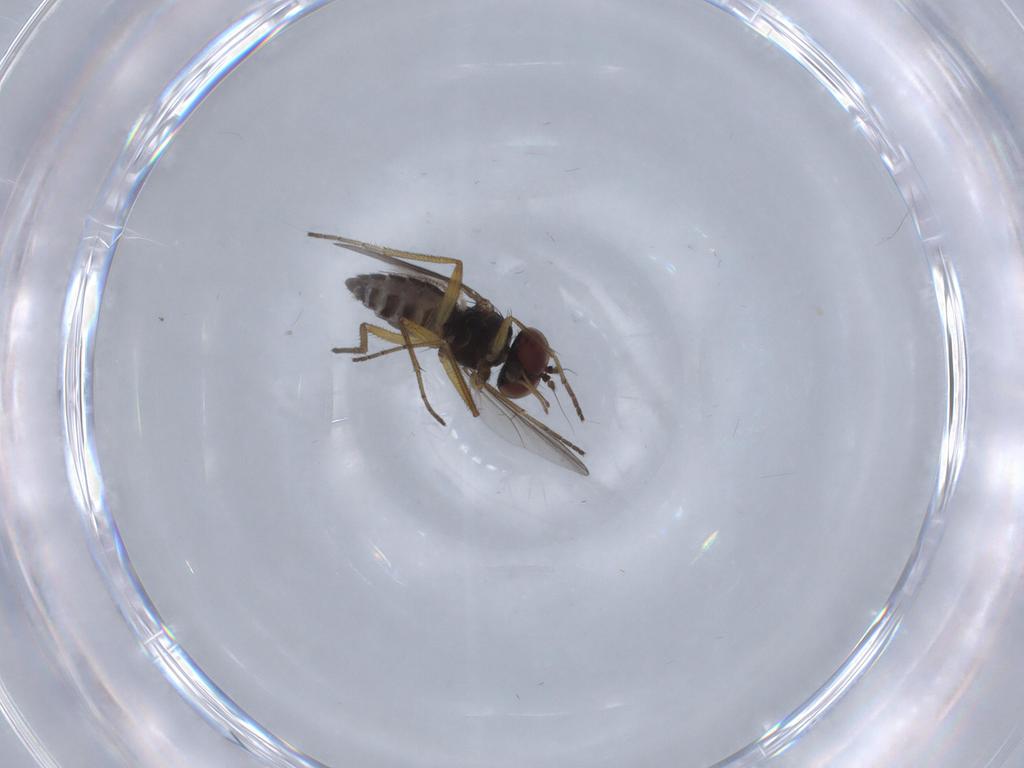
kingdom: Animalia
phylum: Arthropoda
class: Insecta
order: Diptera
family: Dolichopodidae
